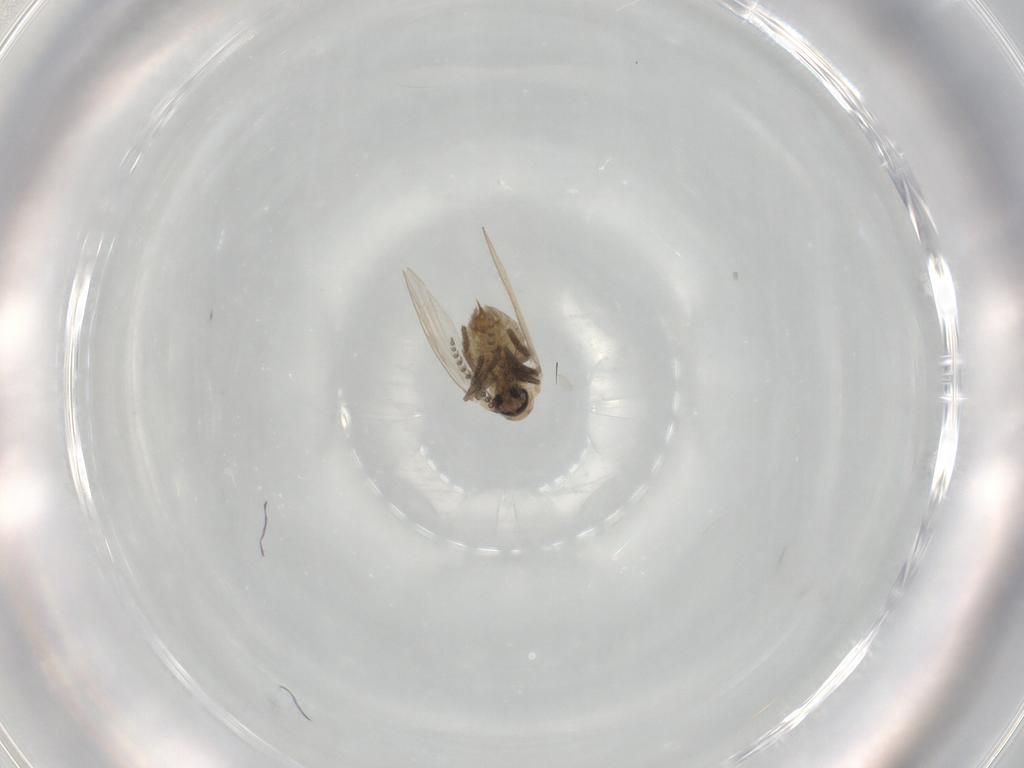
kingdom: Animalia
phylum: Arthropoda
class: Insecta
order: Diptera
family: Psychodidae
